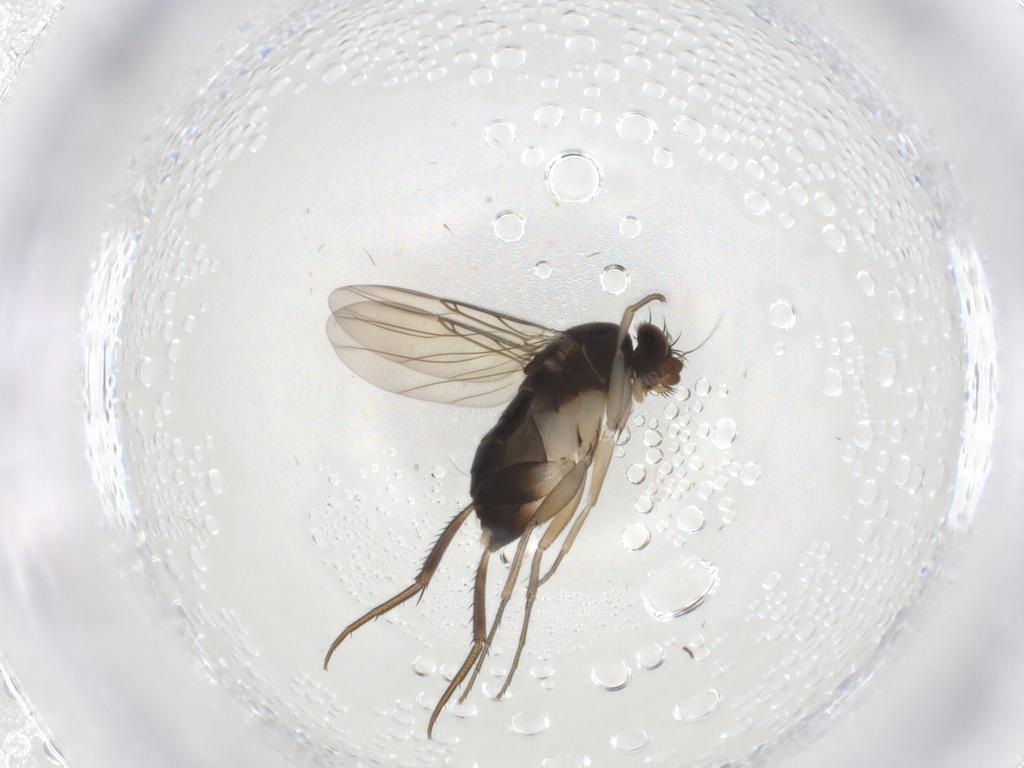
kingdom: Animalia
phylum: Arthropoda
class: Insecta
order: Diptera
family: Phoridae
